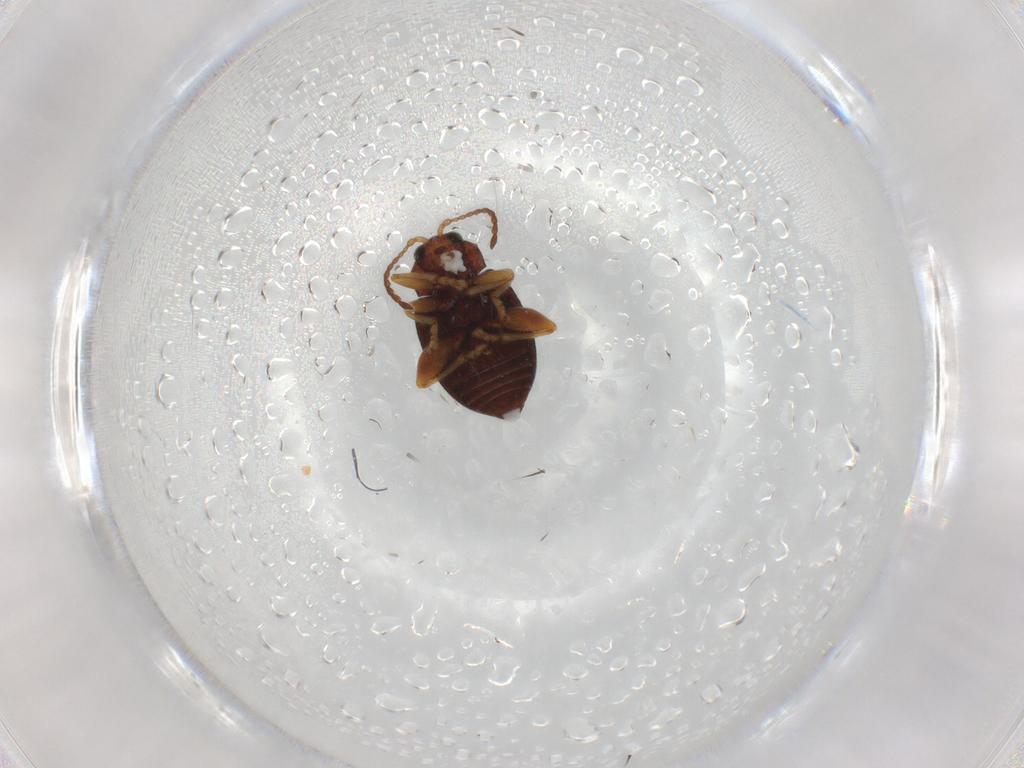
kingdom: Animalia
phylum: Arthropoda
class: Insecta
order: Coleoptera
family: Chrysomelidae
